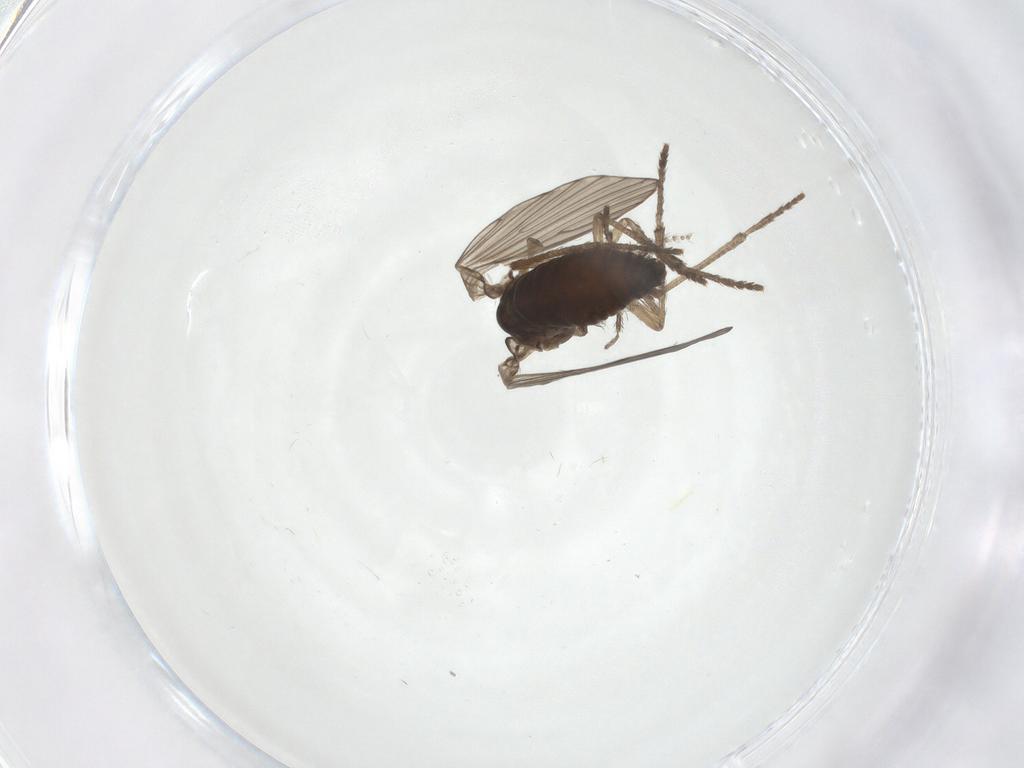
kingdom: Animalia
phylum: Arthropoda
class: Insecta
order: Diptera
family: Psychodidae
